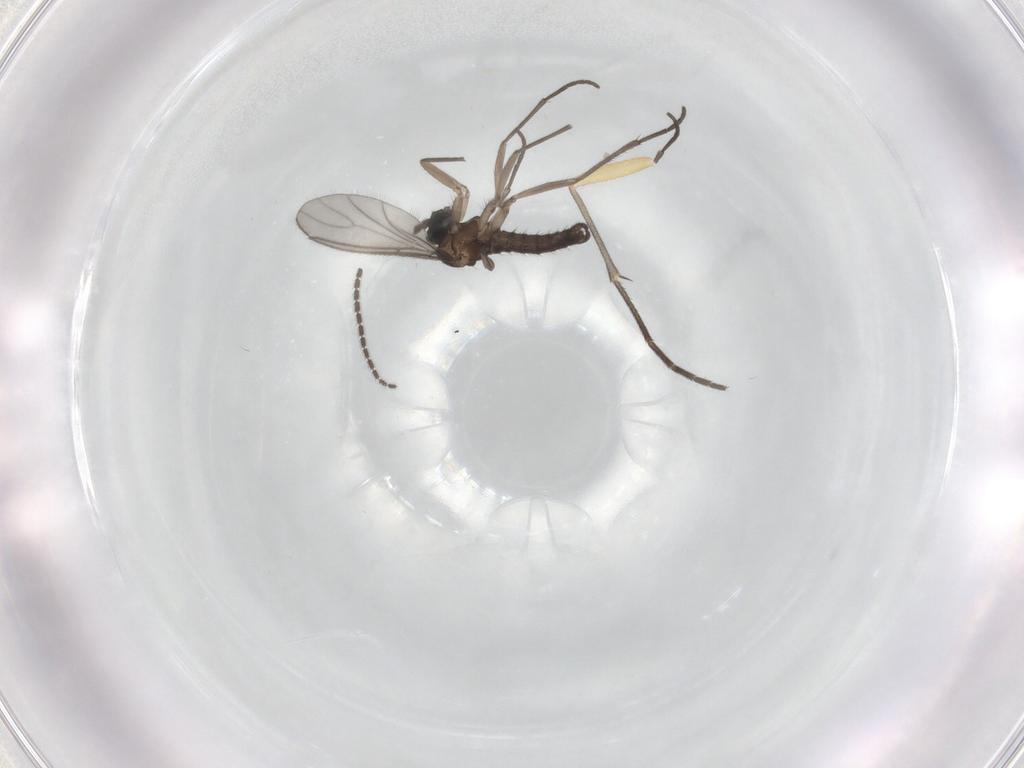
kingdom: Animalia
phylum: Arthropoda
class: Insecta
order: Diptera
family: Sciaridae
